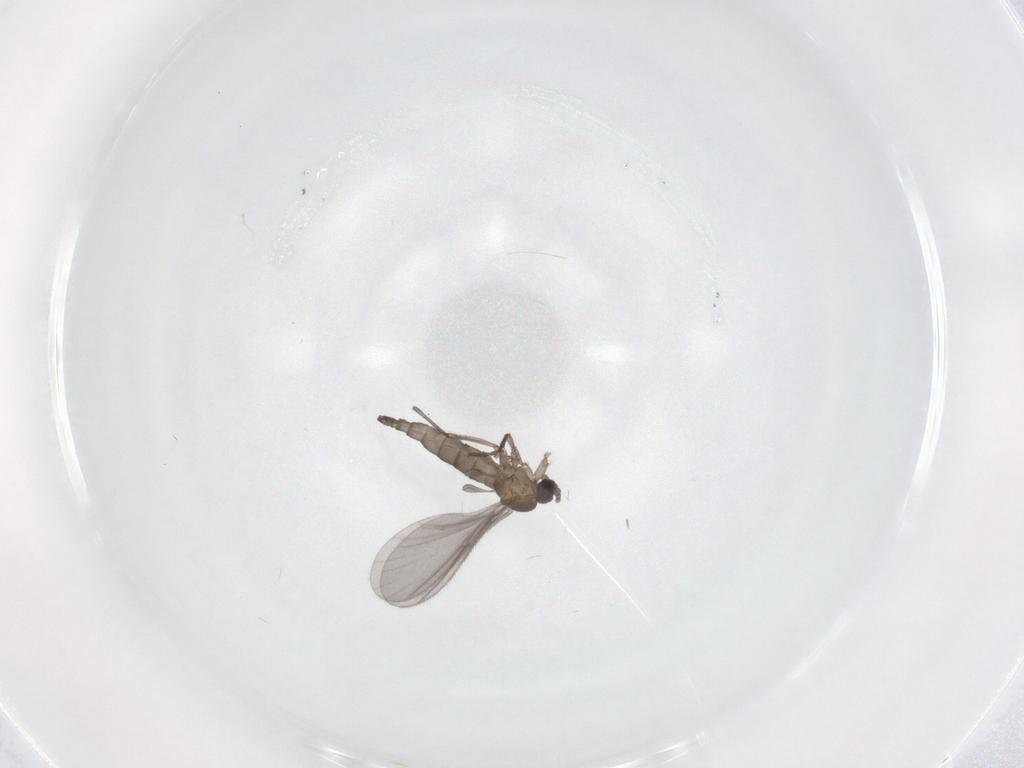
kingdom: Animalia
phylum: Arthropoda
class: Insecta
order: Diptera
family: Sciaridae
